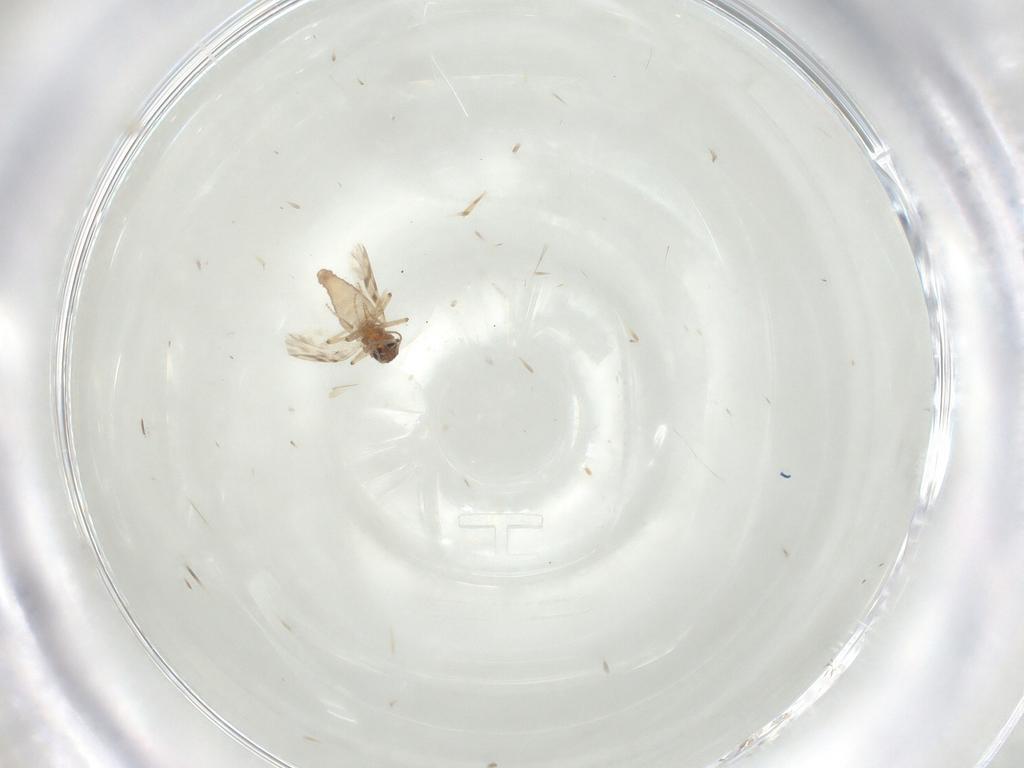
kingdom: Animalia
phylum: Arthropoda
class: Insecta
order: Diptera
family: Ceratopogonidae
